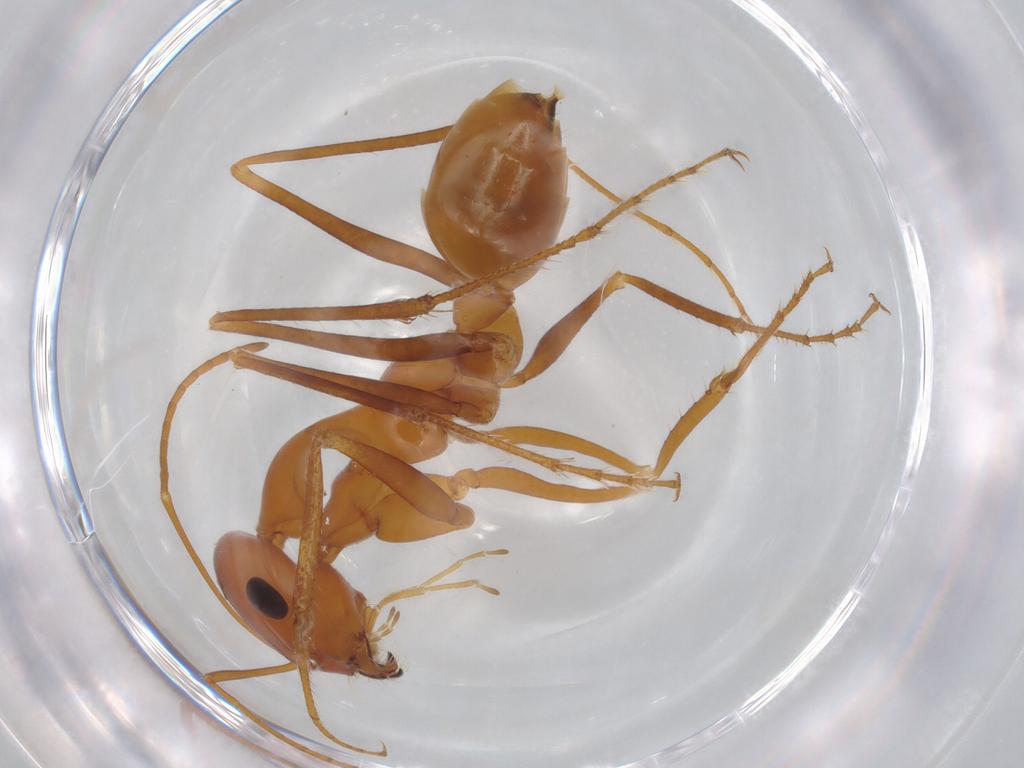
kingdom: Animalia
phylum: Arthropoda
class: Insecta
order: Hymenoptera
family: Formicidae
